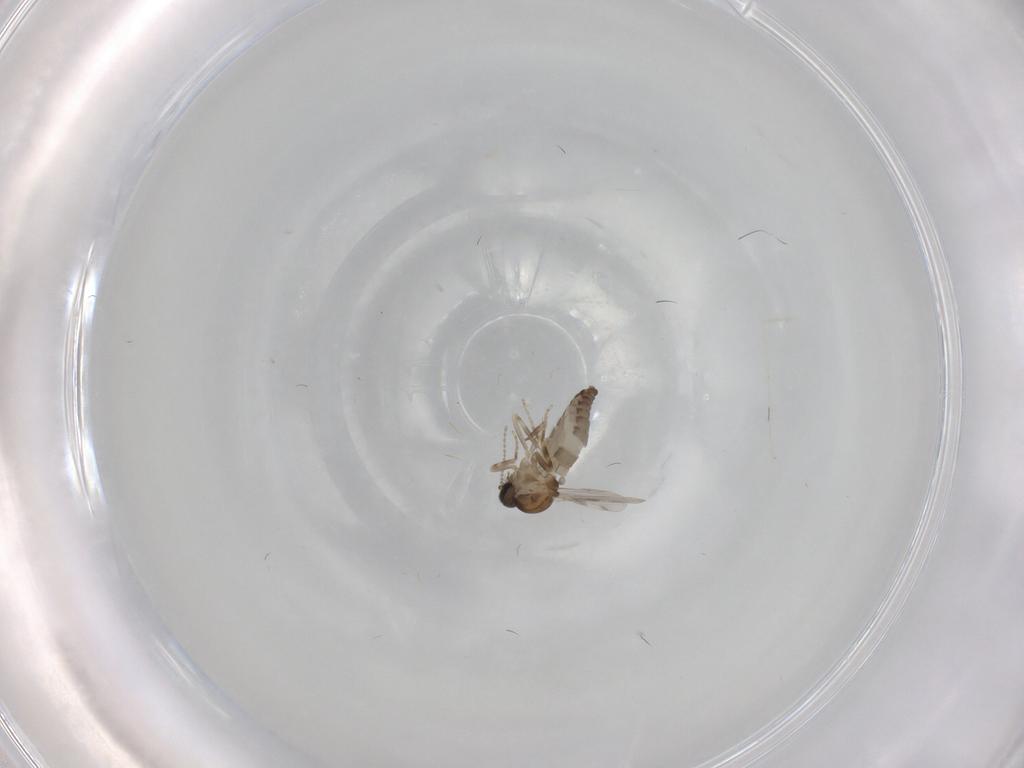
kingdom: Animalia
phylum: Arthropoda
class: Insecta
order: Diptera
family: Ceratopogonidae
